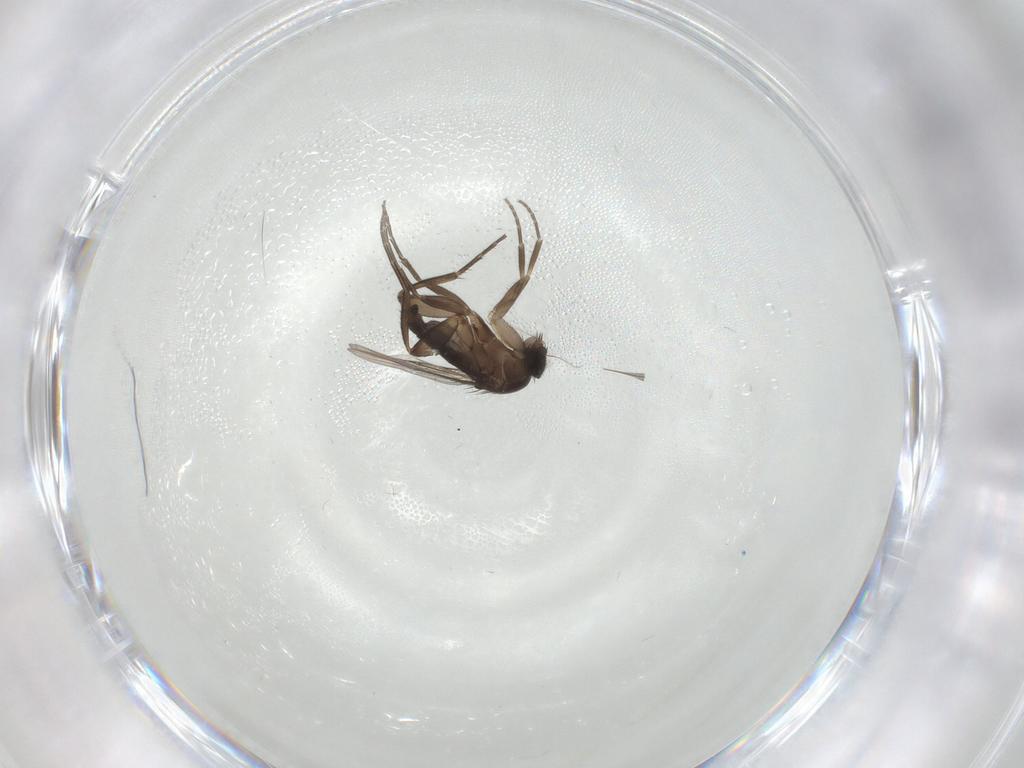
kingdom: Animalia
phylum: Arthropoda
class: Insecta
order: Diptera
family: Phoridae
